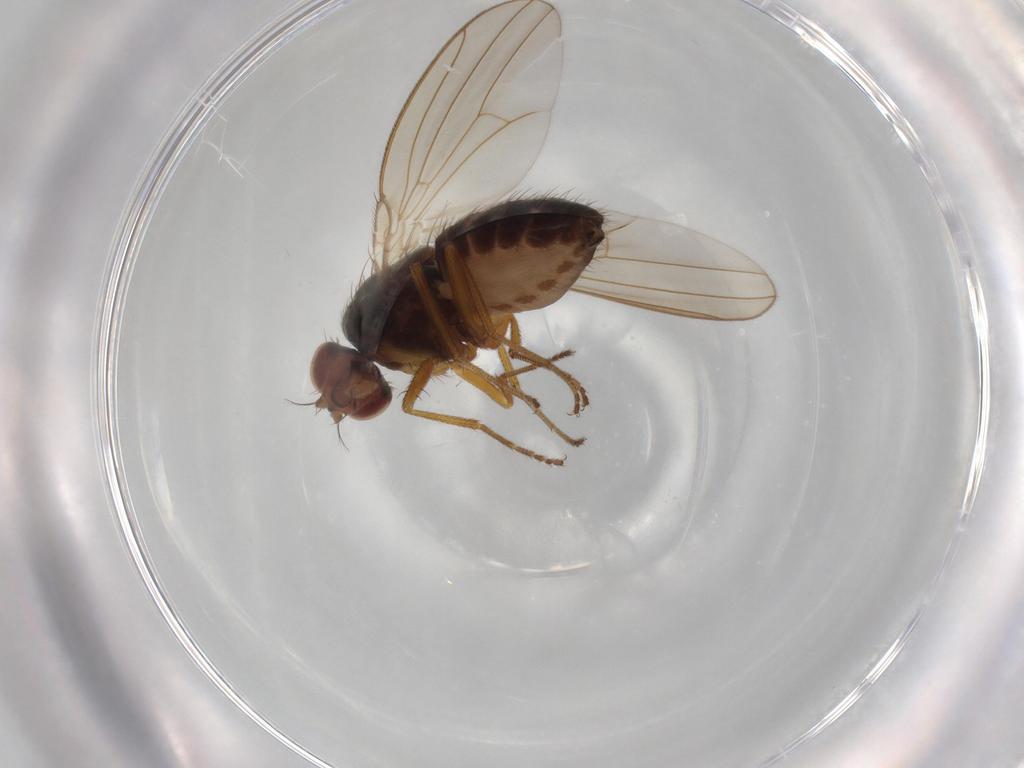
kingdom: Animalia
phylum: Arthropoda
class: Insecta
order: Diptera
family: Drosophilidae
